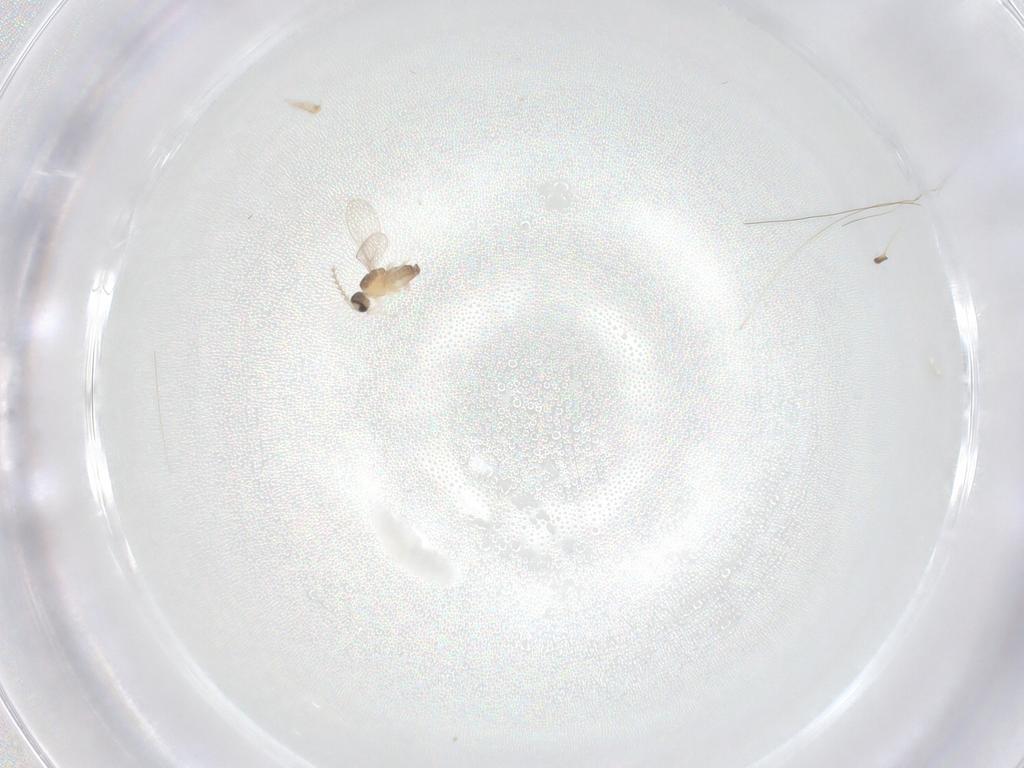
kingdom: Animalia
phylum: Arthropoda
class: Insecta
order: Diptera
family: Cecidomyiidae
